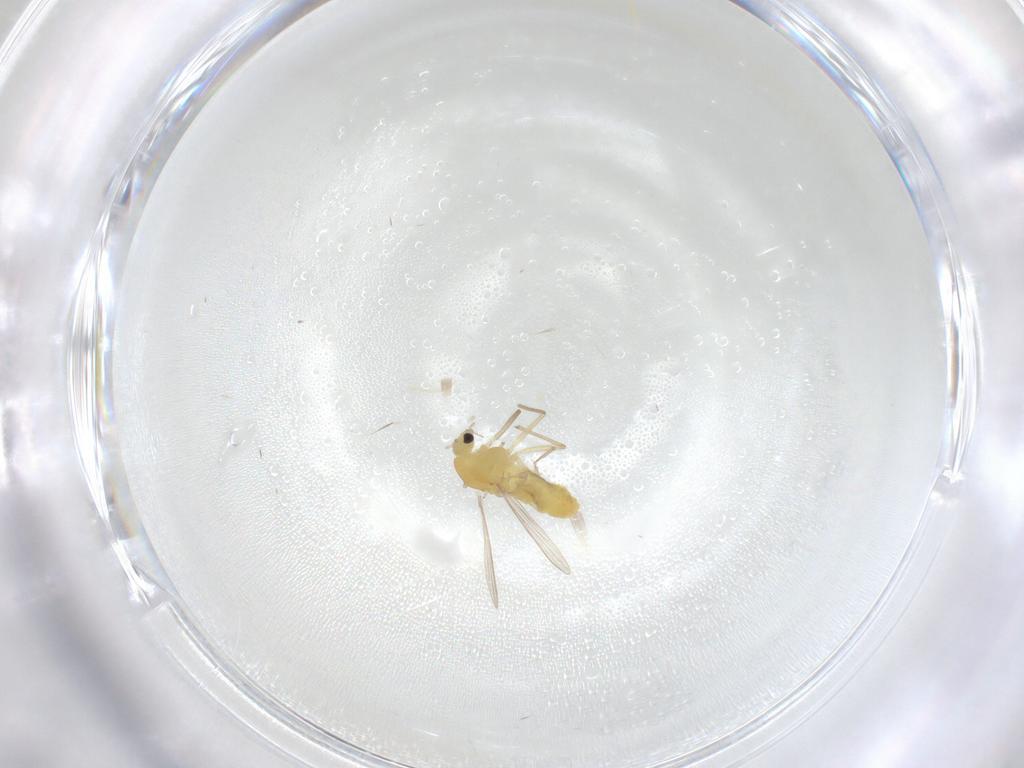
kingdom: Animalia
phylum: Arthropoda
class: Insecta
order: Diptera
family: Chironomidae
